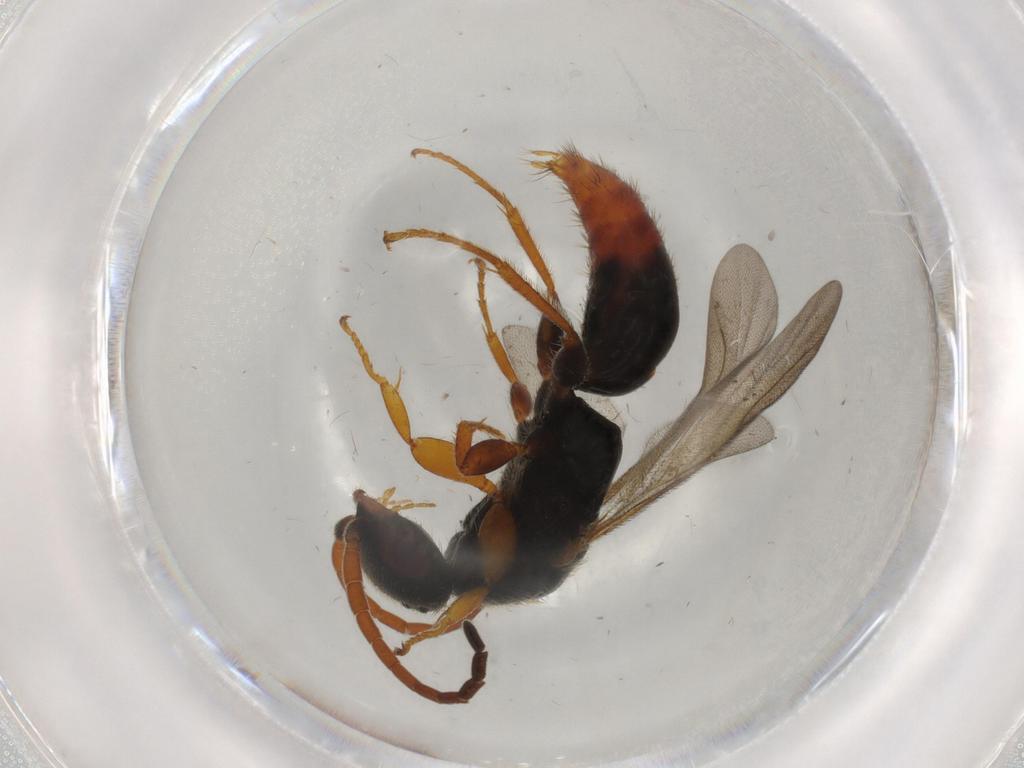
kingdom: Animalia
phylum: Arthropoda
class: Insecta
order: Hymenoptera
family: Bethylidae
